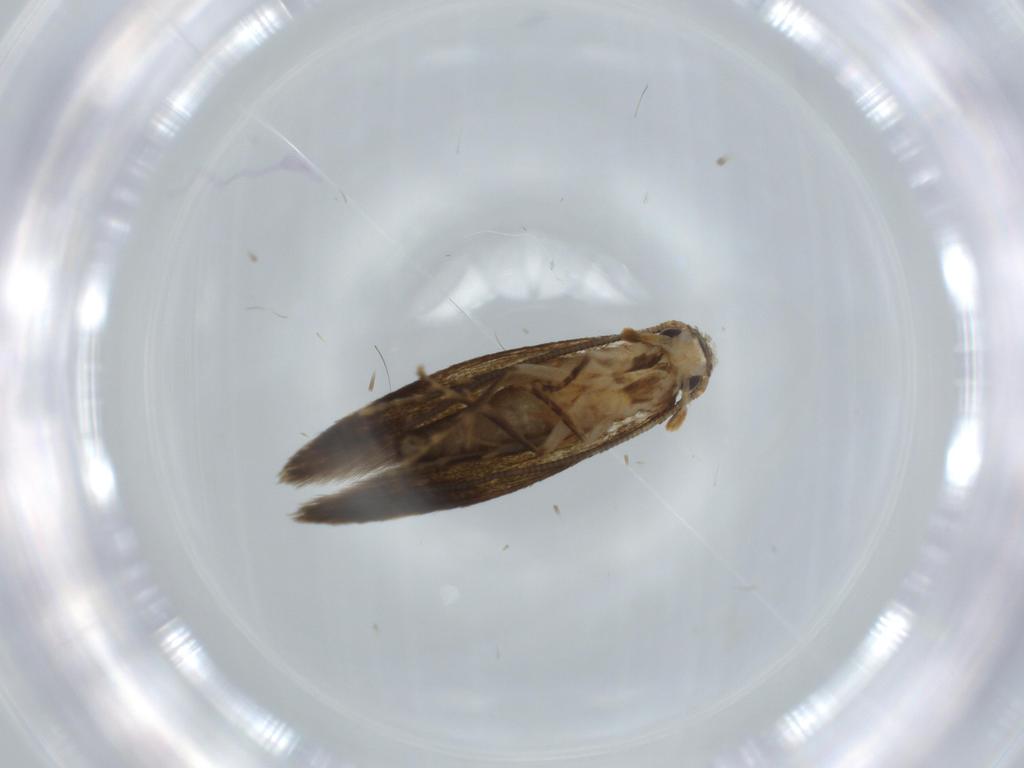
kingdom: Animalia
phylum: Arthropoda
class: Insecta
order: Lepidoptera
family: Tineidae
